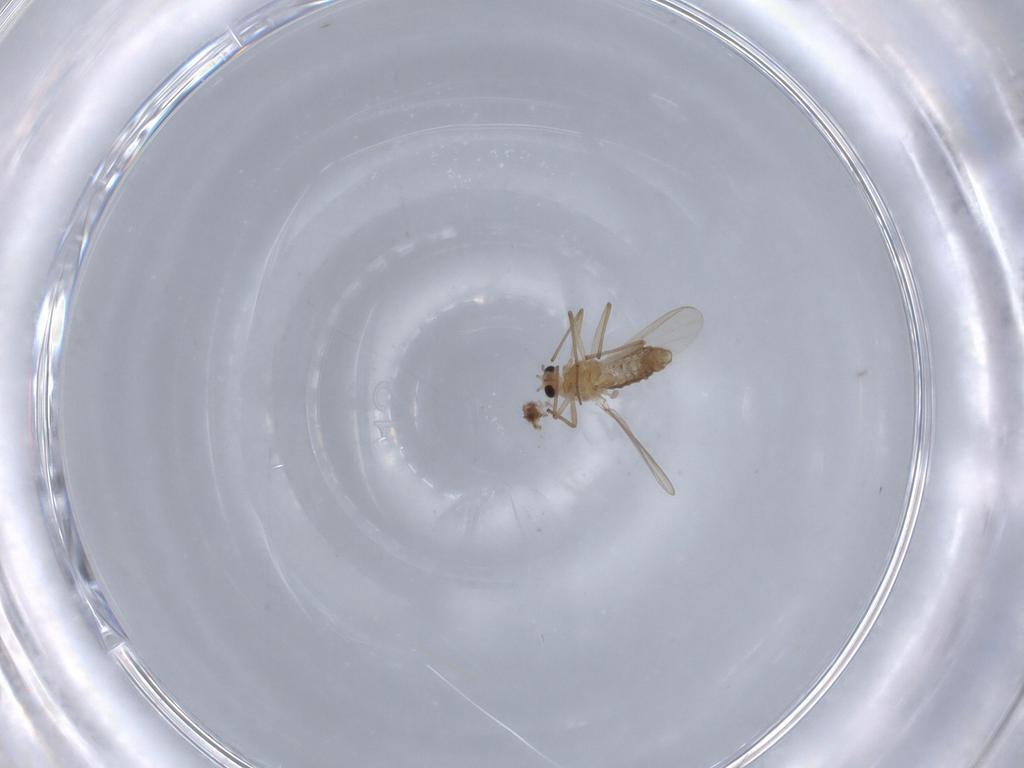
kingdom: Animalia
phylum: Arthropoda
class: Insecta
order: Diptera
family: Chironomidae
